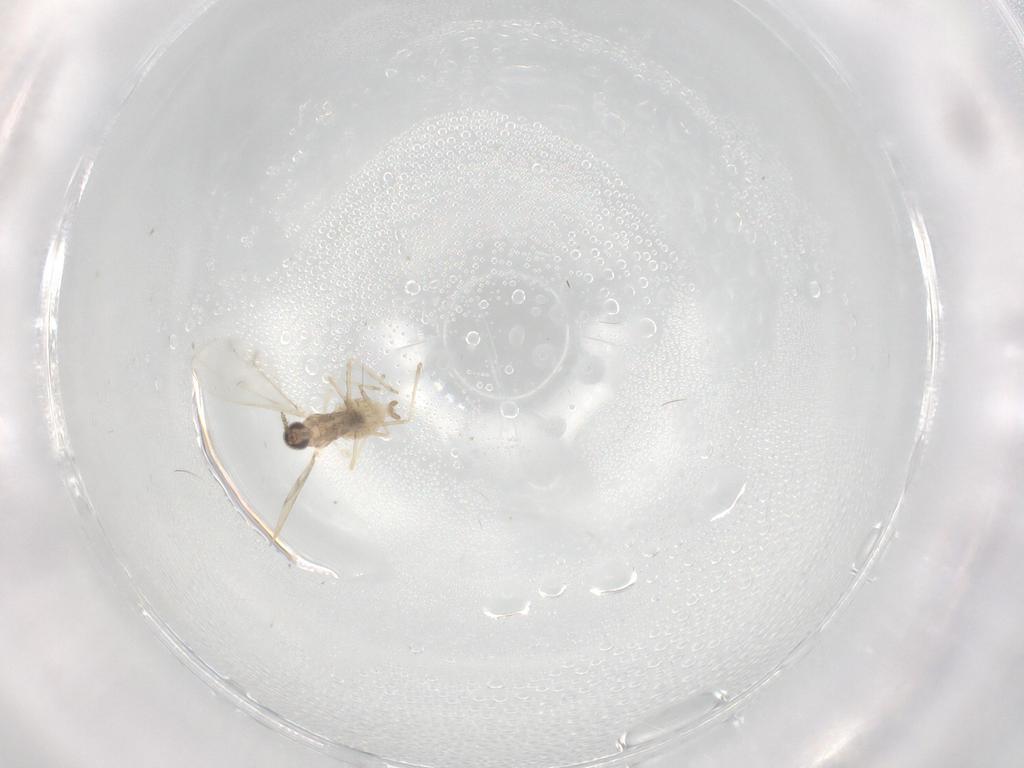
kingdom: Animalia
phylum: Arthropoda
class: Insecta
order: Diptera
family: Cecidomyiidae
